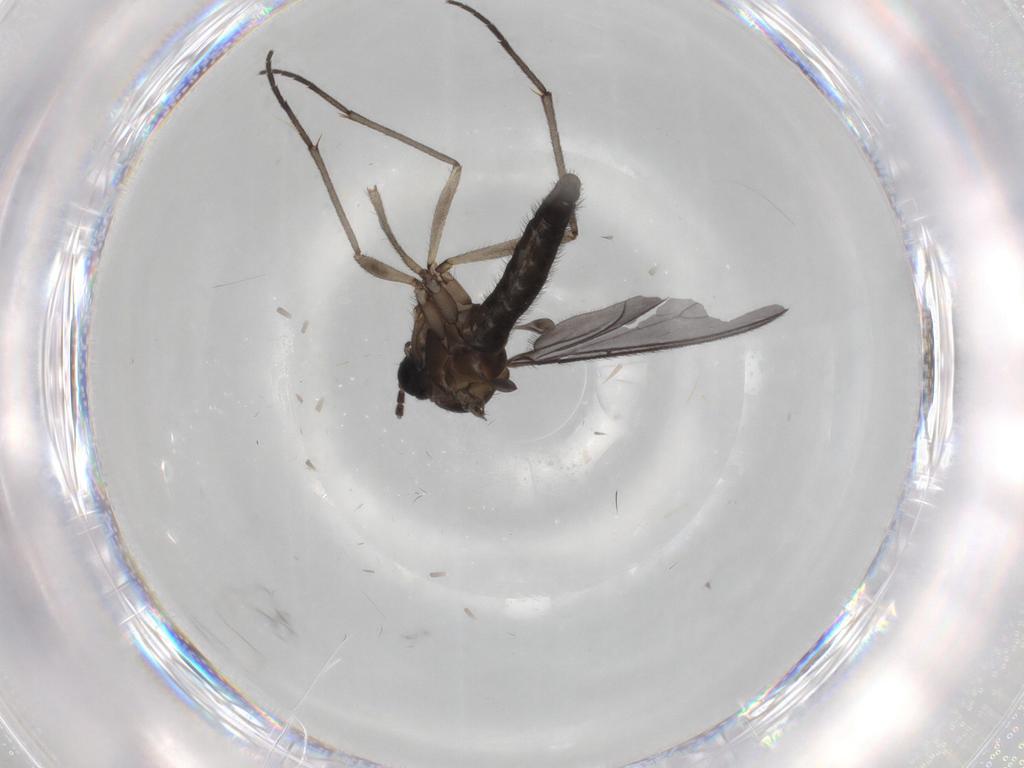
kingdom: Animalia
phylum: Arthropoda
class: Insecta
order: Diptera
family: Sciaridae
